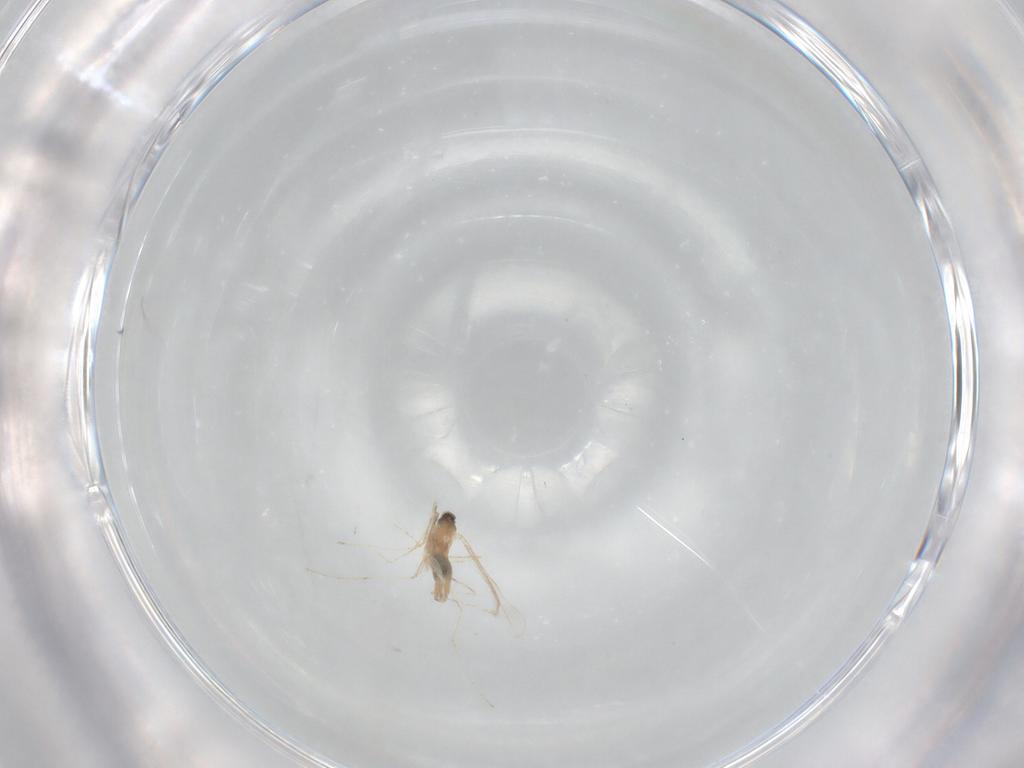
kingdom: Animalia
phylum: Arthropoda
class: Insecta
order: Diptera
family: Cecidomyiidae
